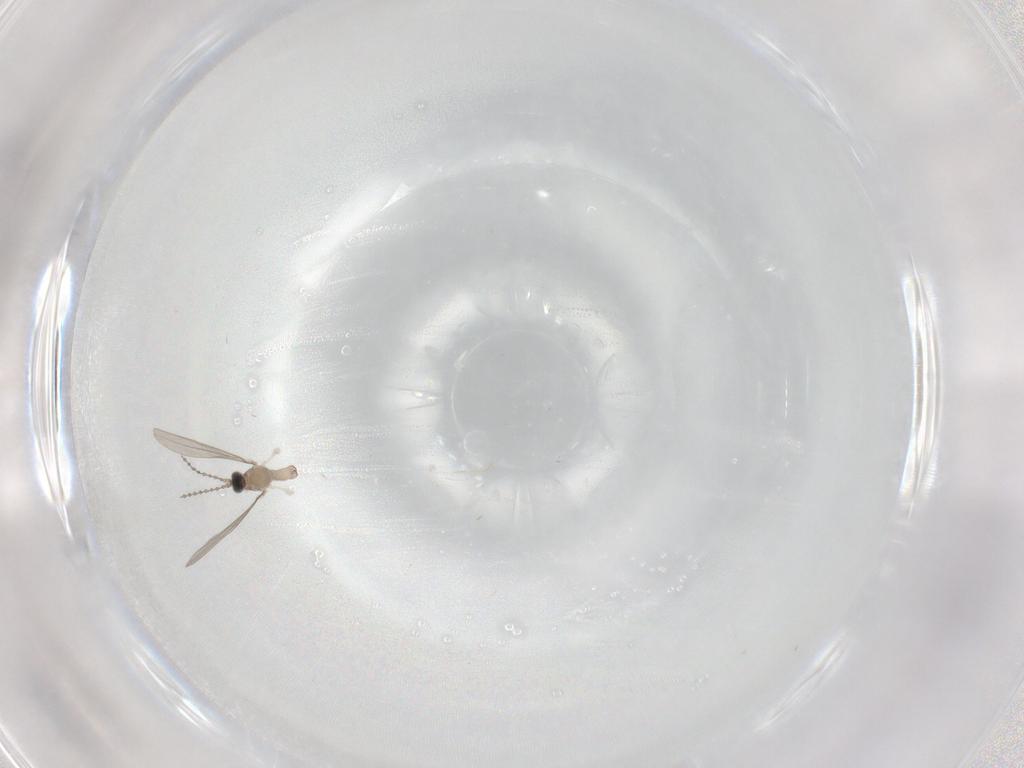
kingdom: Animalia
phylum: Arthropoda
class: Insecta
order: Diptera
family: Cecidomyiidae
